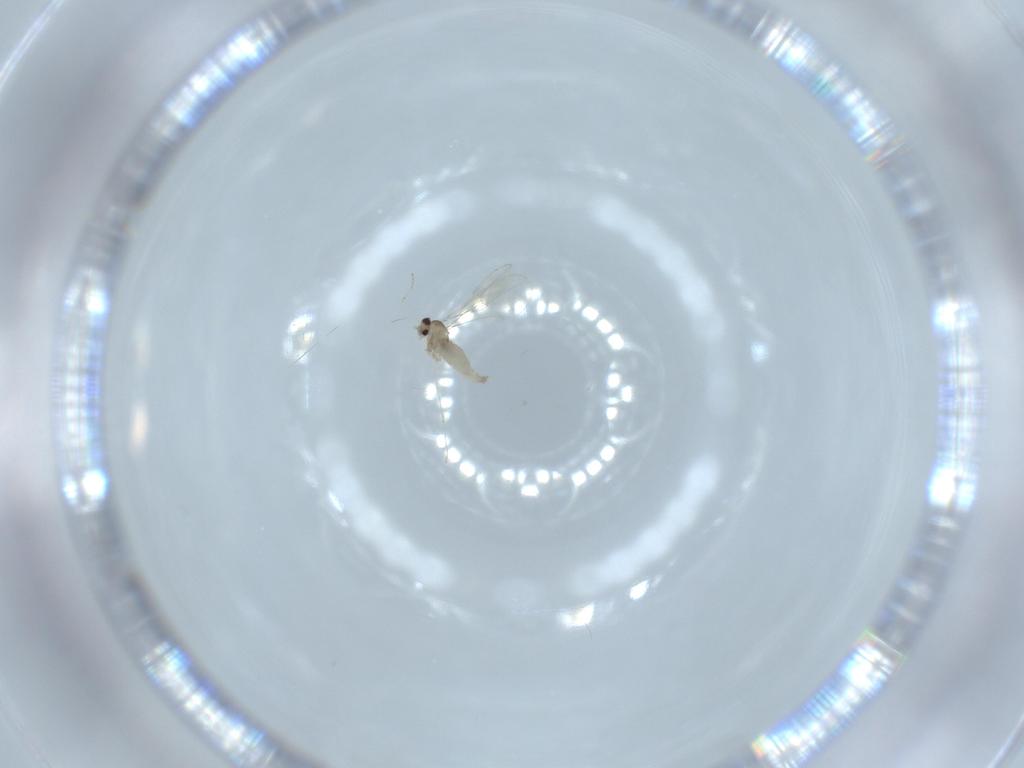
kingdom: Animalia
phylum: Arthropoda
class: Insecta
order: Diptera
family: Cecidomyiidae
